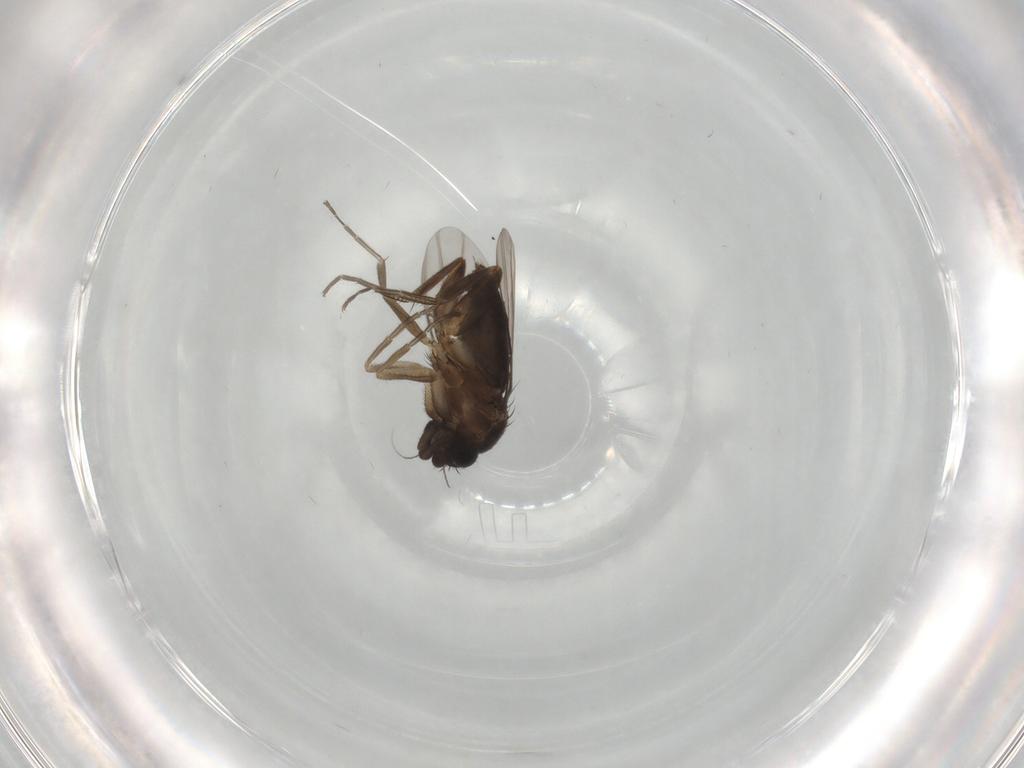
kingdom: Animalia
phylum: Arthropoda
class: Insecta
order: Diptera
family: Phoridae
